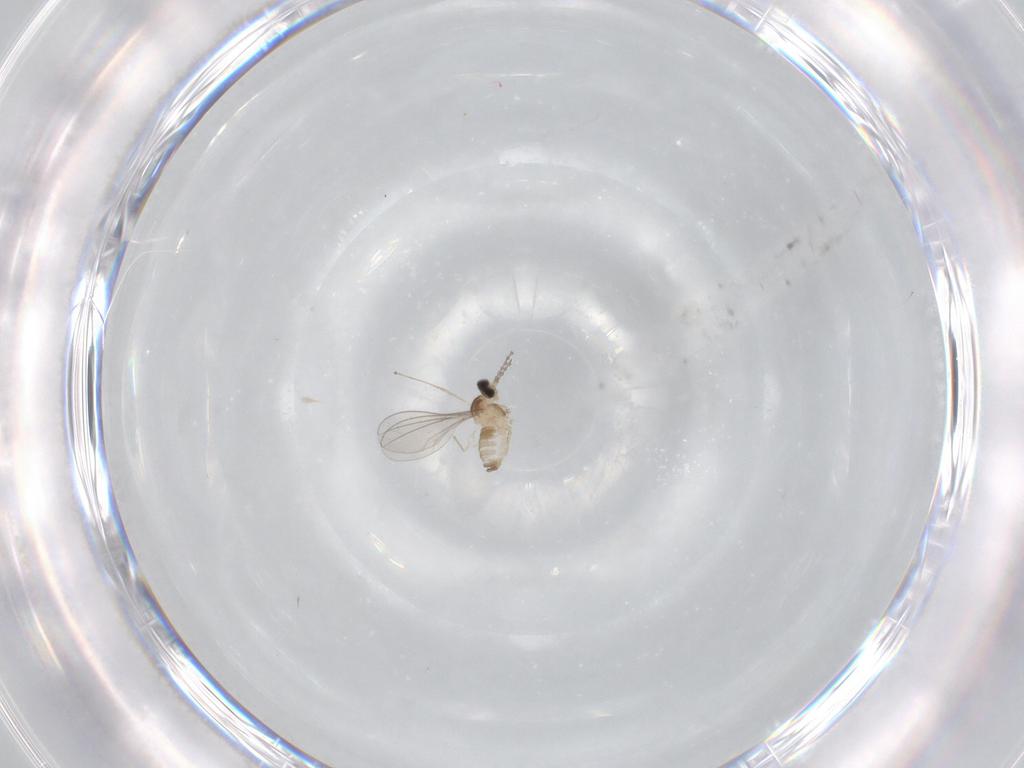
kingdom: Animalia
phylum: Arthropoda
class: Insecta
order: Diptera
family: Cecidomyiidae
